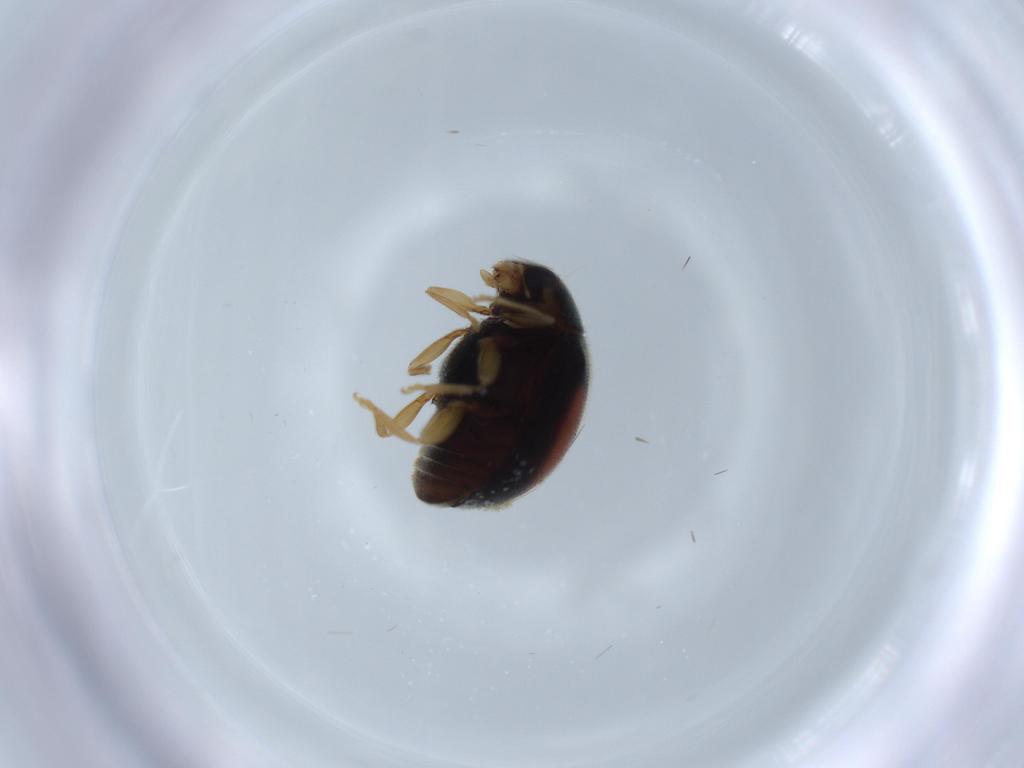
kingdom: Animalia
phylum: Arthropoda
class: Insecta
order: Coleoptera
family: Coccinellidae
